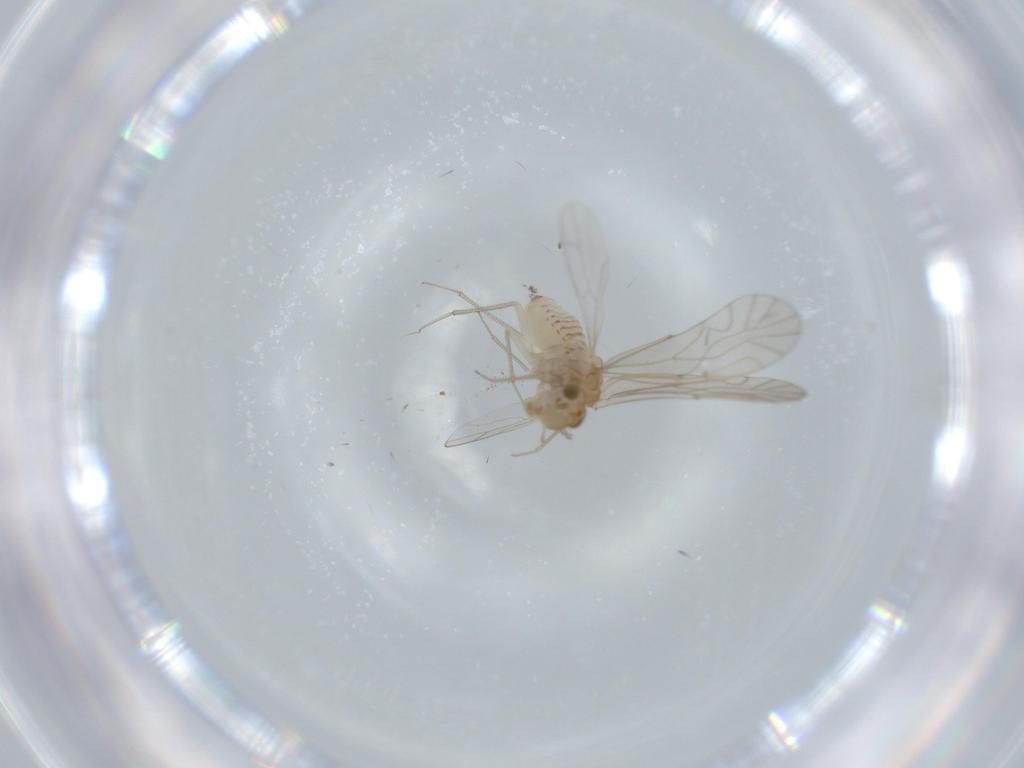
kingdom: Animalia
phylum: Arthropoda
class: Insecta
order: Psocodea
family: Lachesillidae
